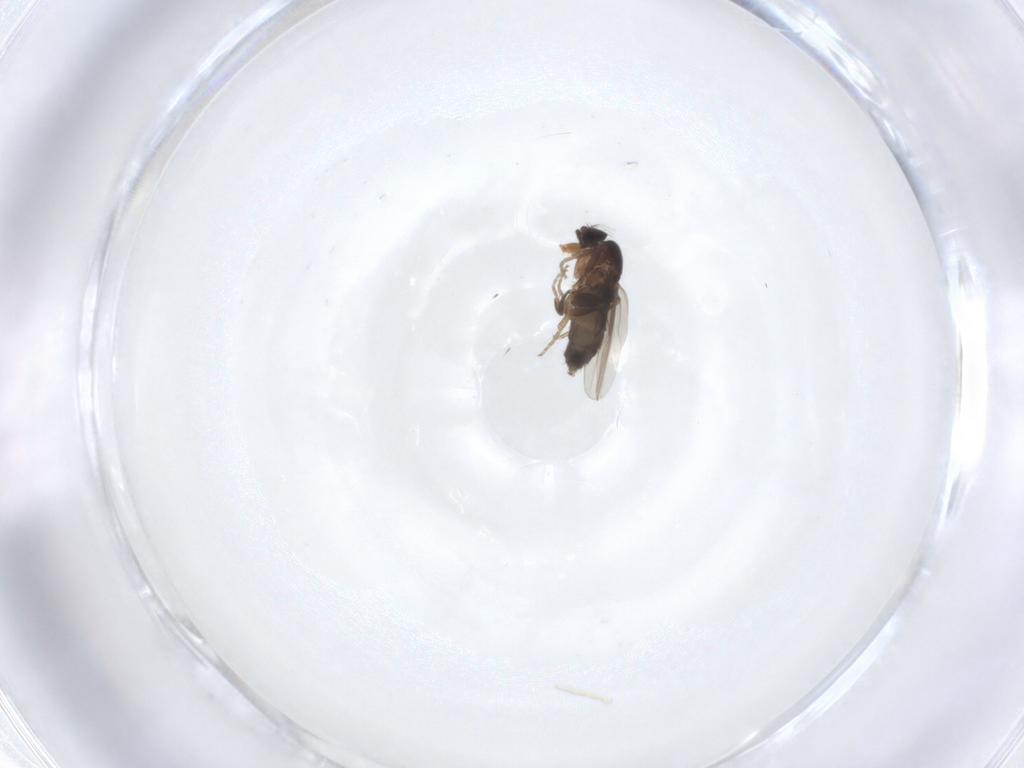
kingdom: Animalia
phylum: Arthropoda
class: Insecta
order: Diptera
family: Phoridae
